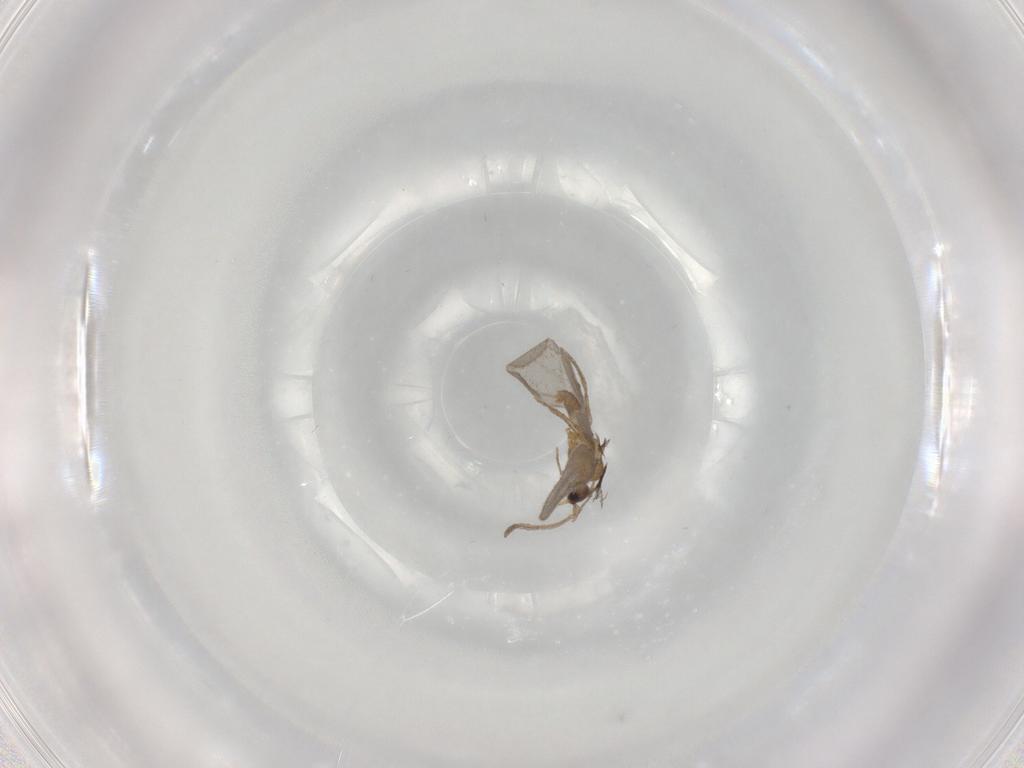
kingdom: Animalia
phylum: Arthropoda
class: Insecta
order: Hymenoptera
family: Formicidae
